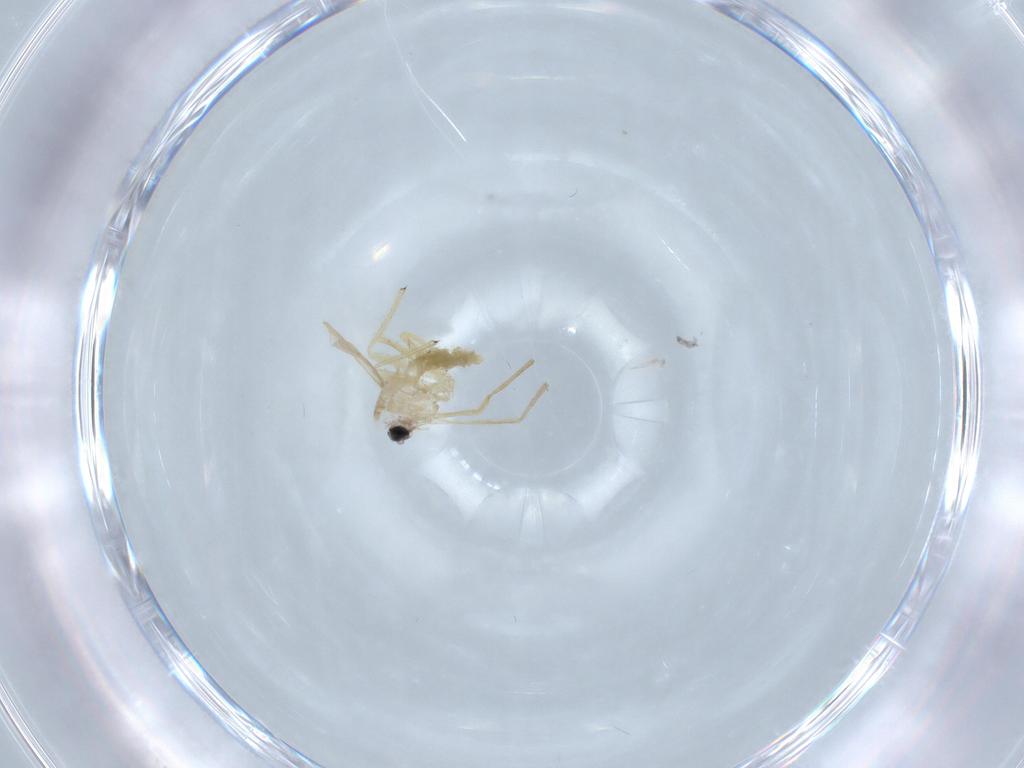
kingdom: Animalia
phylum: Arthropoda
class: Insecta
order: Diptera
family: Chironomidae
